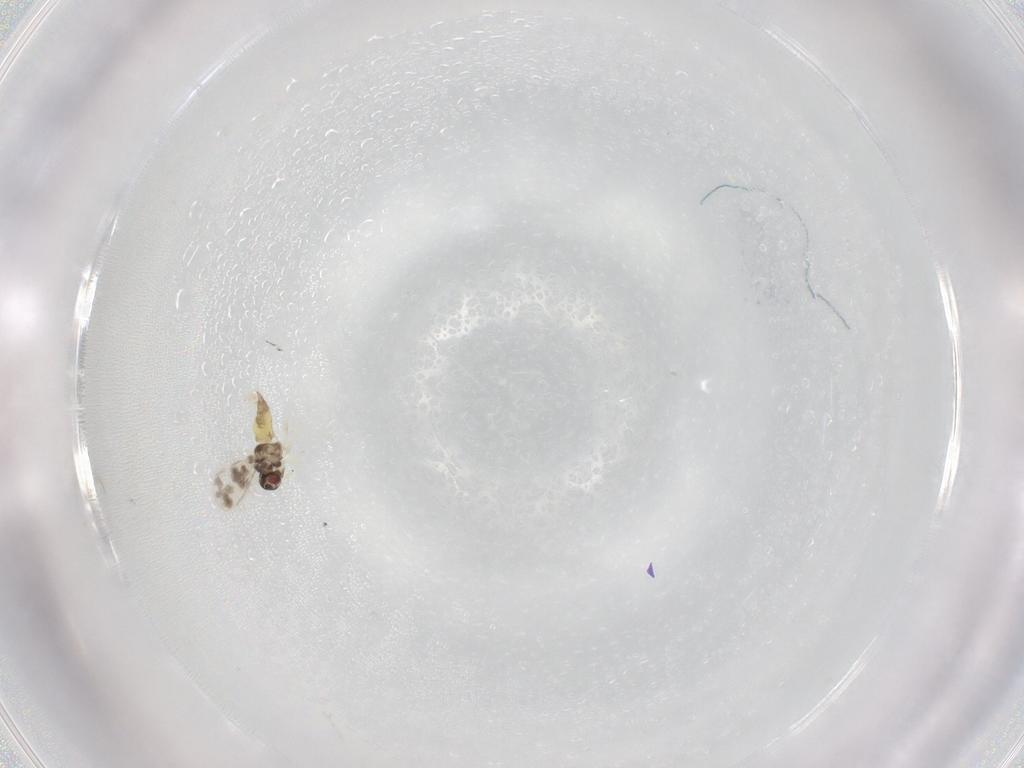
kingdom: Animalia
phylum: Arthropoda
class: Insecta
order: Hemiptera
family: Aleyrodidae
